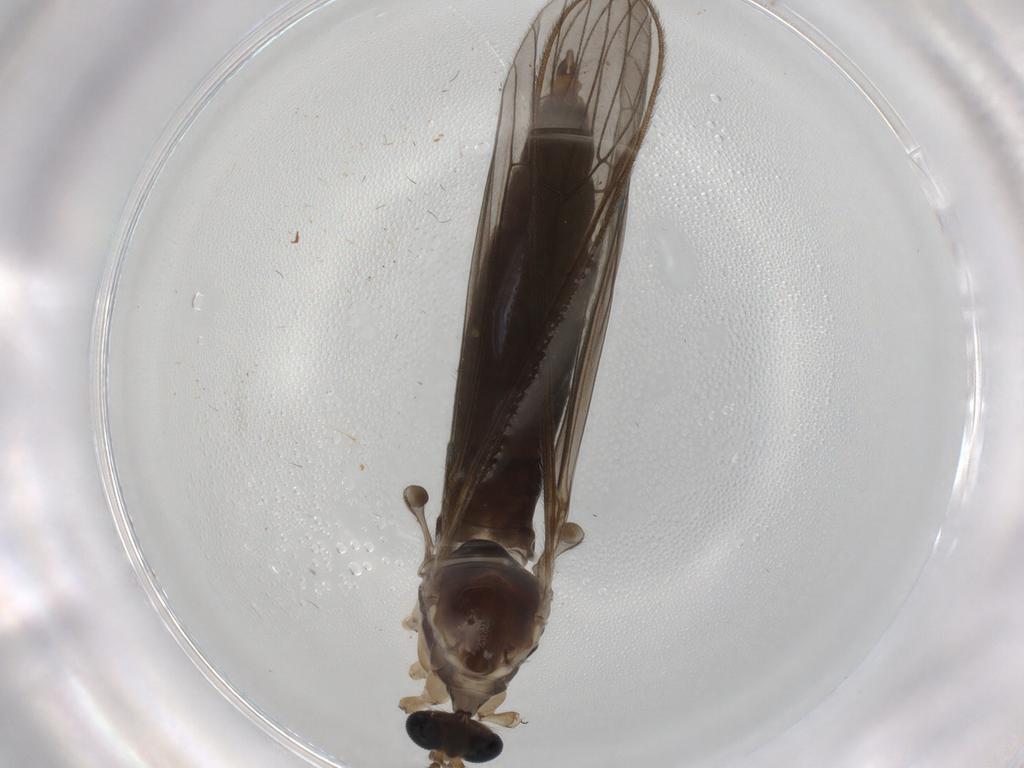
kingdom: Animalia
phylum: Arthropoda
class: Insecta
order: Diptera
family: Limoniidae
